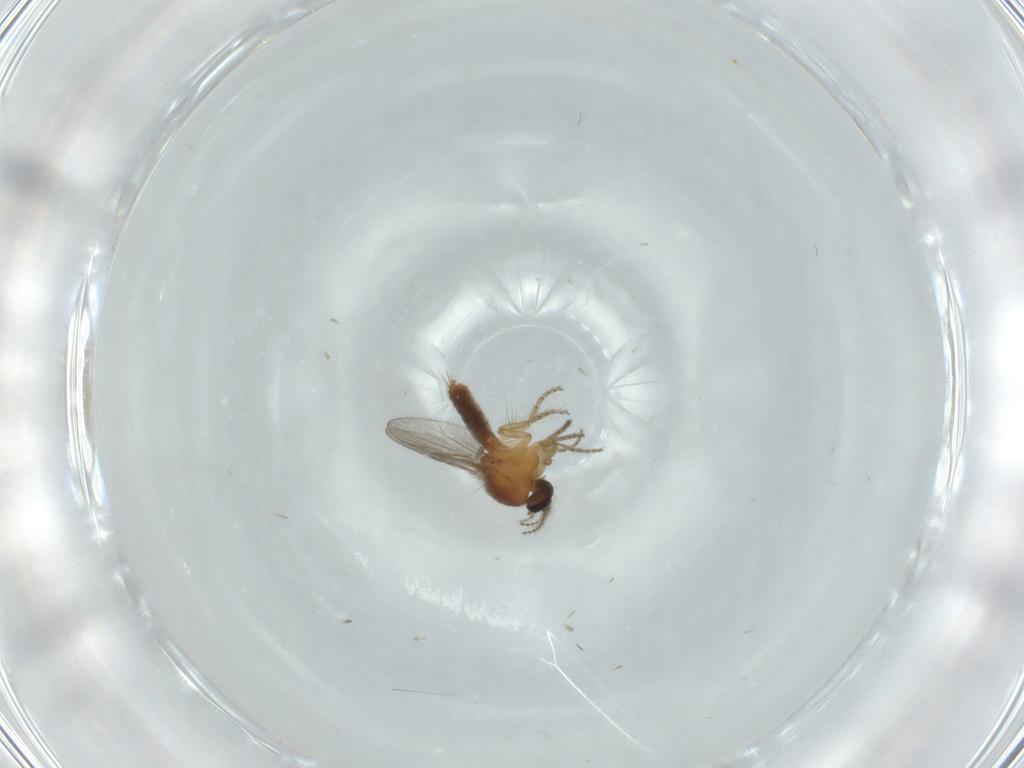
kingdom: Animalia
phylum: Arthropoda
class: Insecta
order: Diptera
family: Ceratopogonidae
